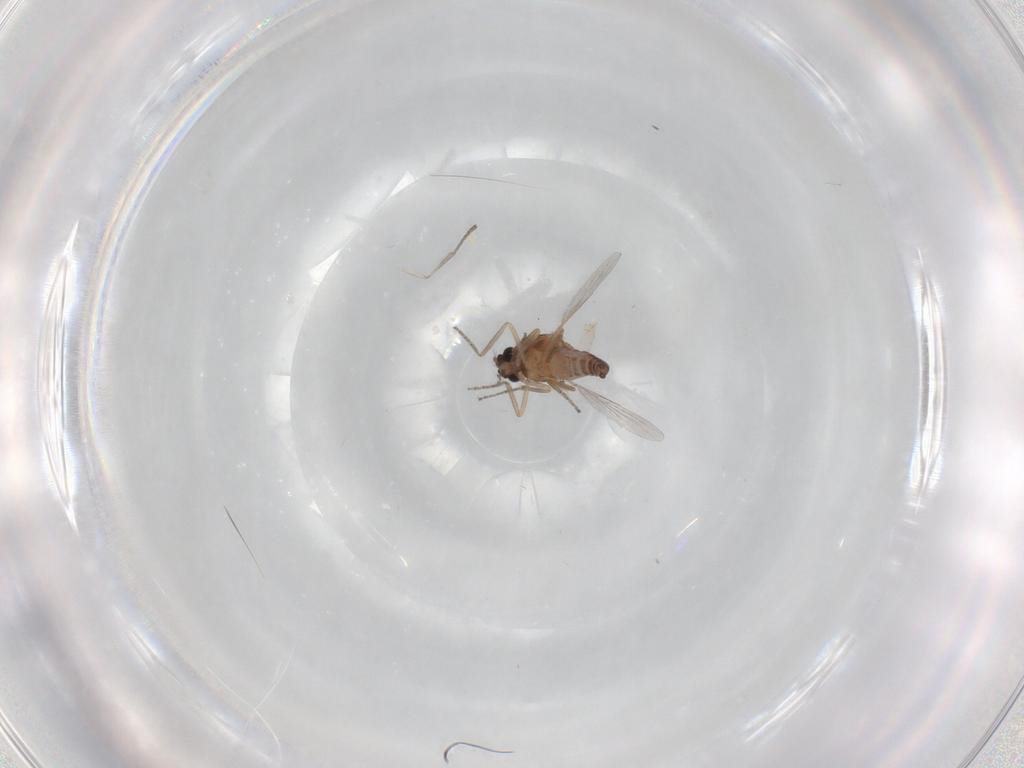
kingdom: Animalia
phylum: Arthropoda
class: Insecta
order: Diptera
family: Ceratopogonidae
